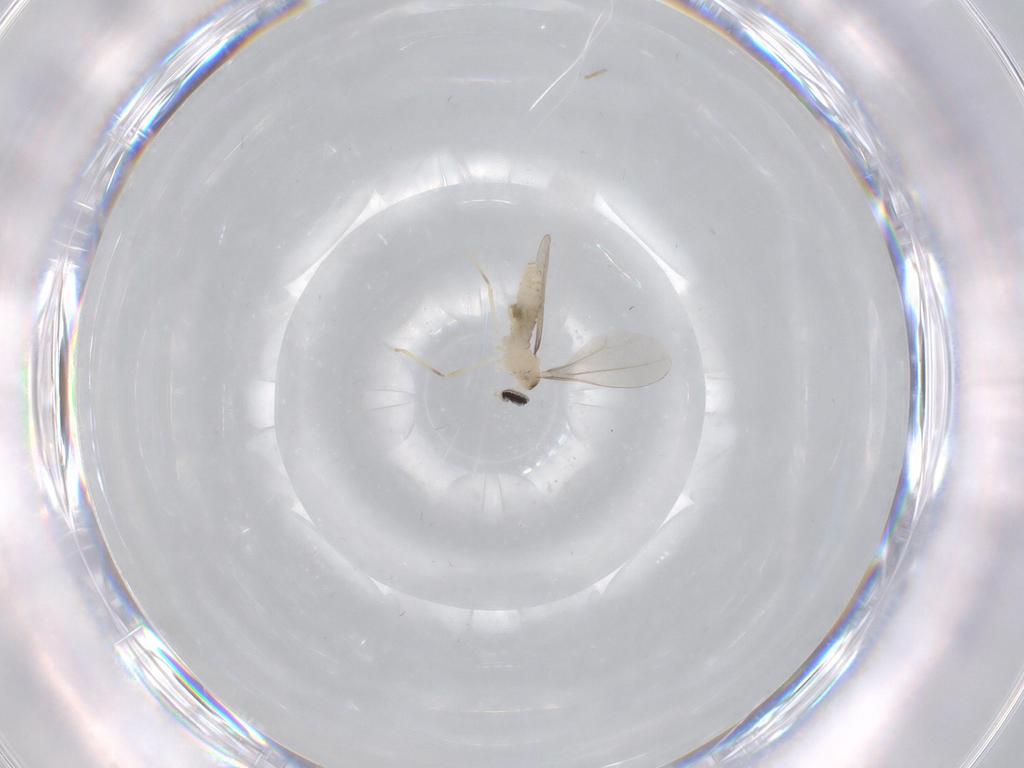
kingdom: Animalia
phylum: Arthropoda
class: Insecta
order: Diptera
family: Cecidomyiidae
